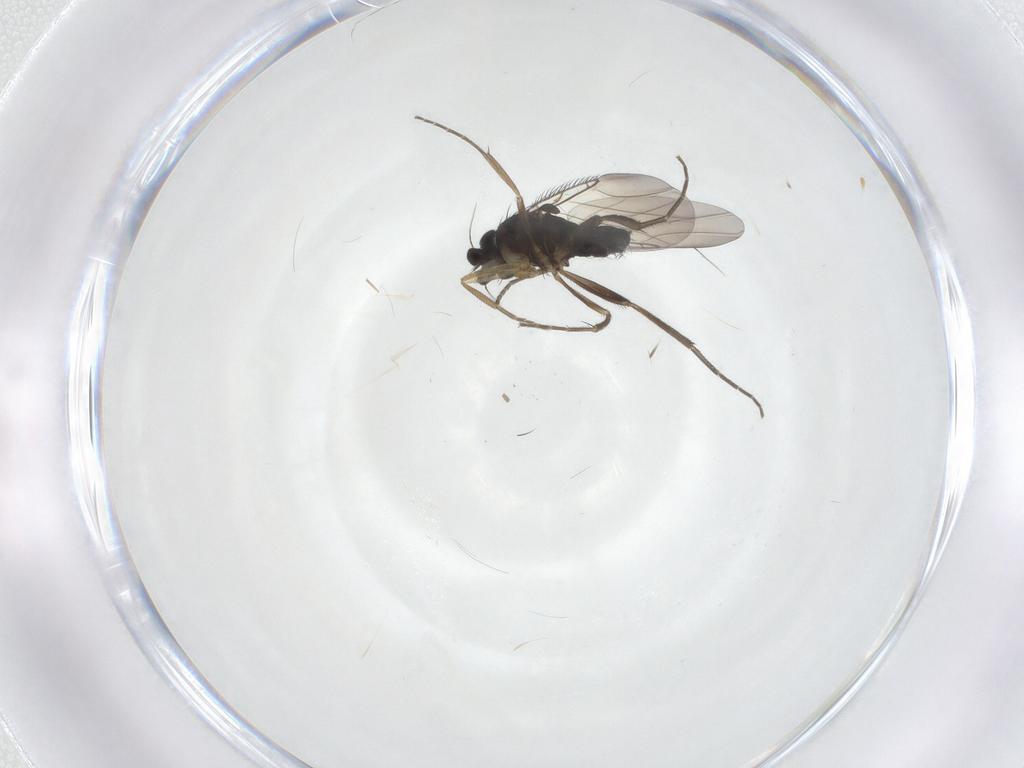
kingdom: Animalia
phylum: Arthropoda
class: Insecta
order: Diptera
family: Phoridae
